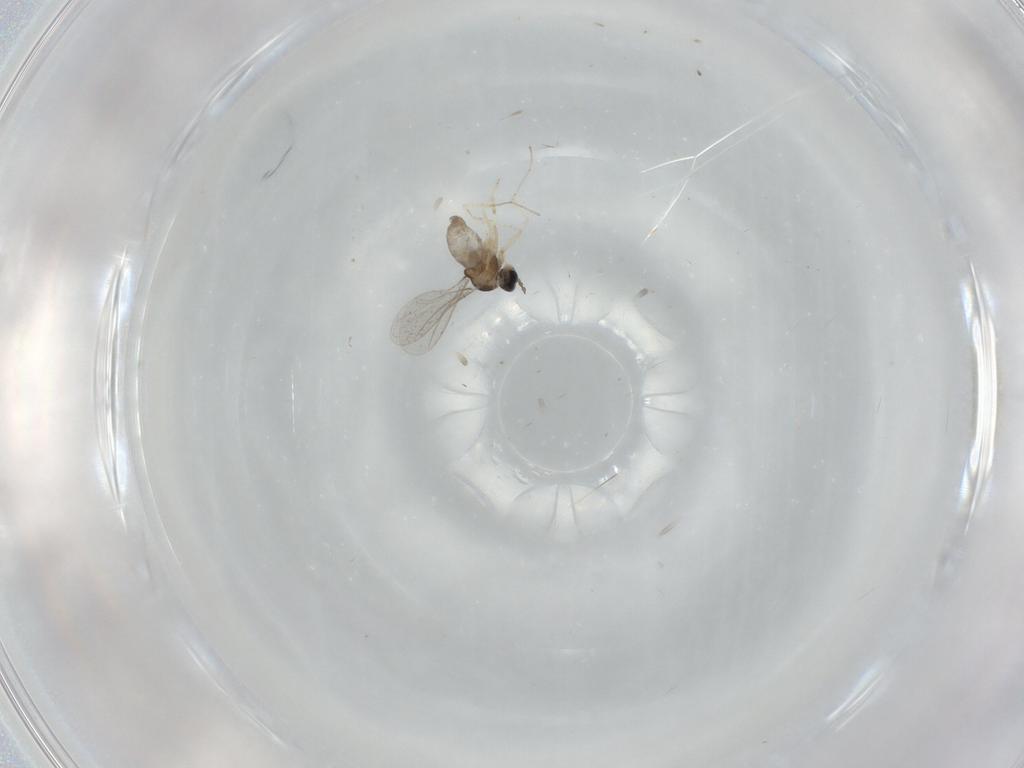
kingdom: Animalia
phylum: Arthropoda
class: Insecta
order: Diptera
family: Cecidomyiidae
